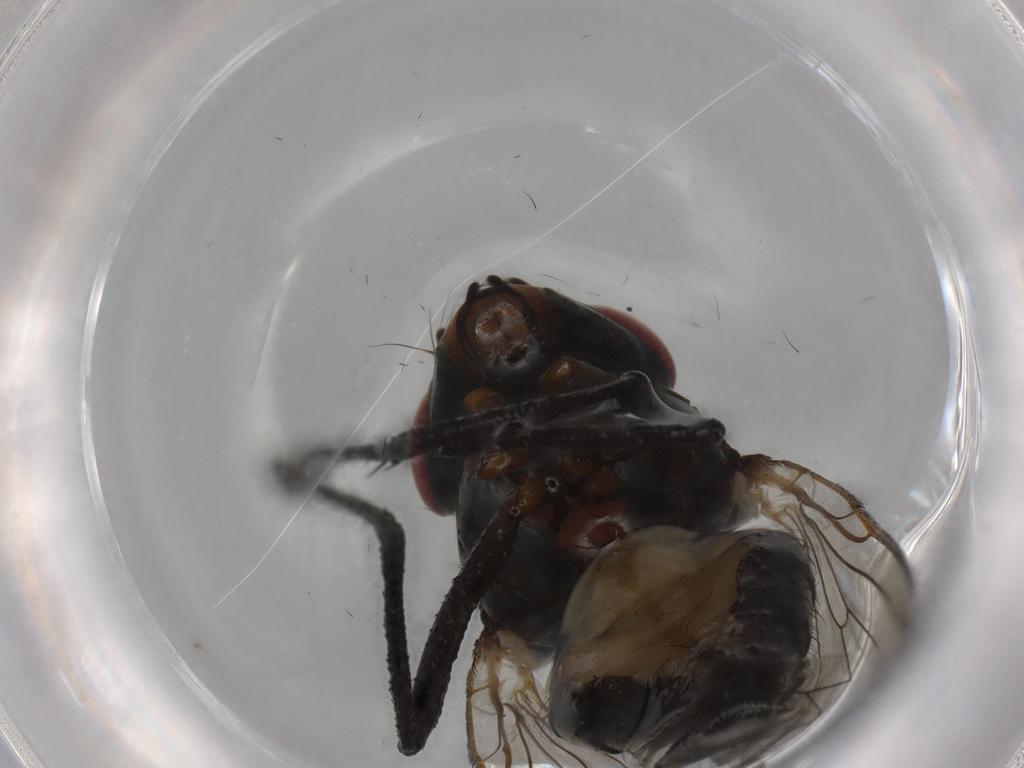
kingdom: Animalia
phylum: Arthropoda
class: Insecta
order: Diptera
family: Anthomyiidae
